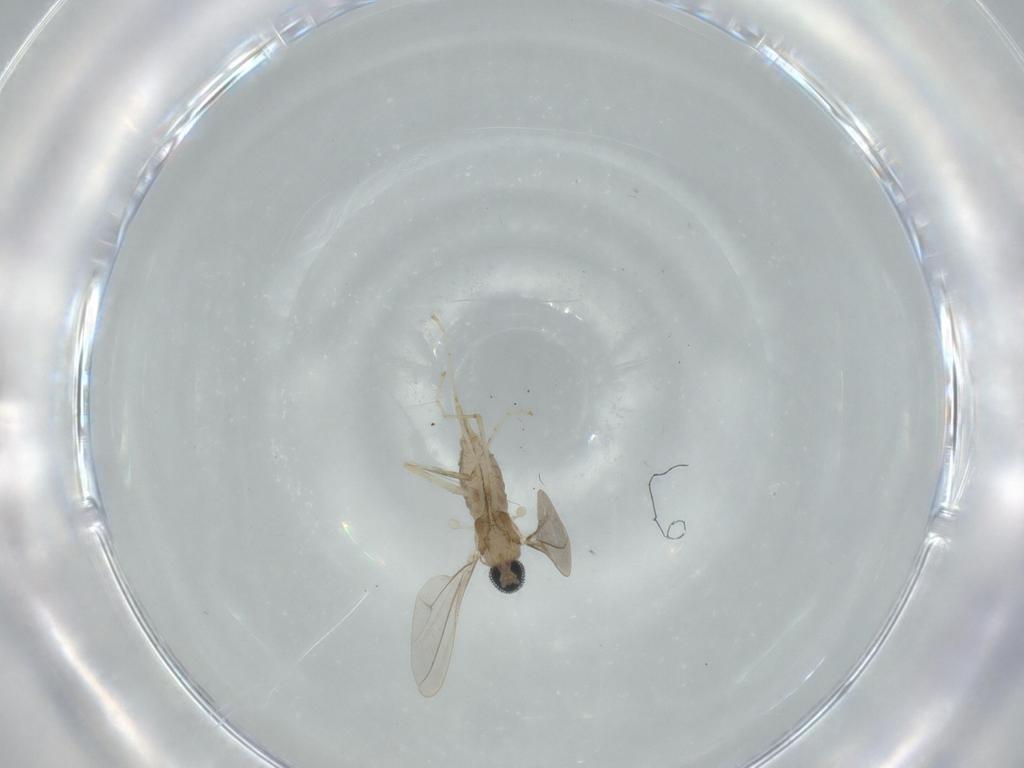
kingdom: Animalia
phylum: Arthropoda
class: Insecta
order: Diptera
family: Cecidomyiidae
